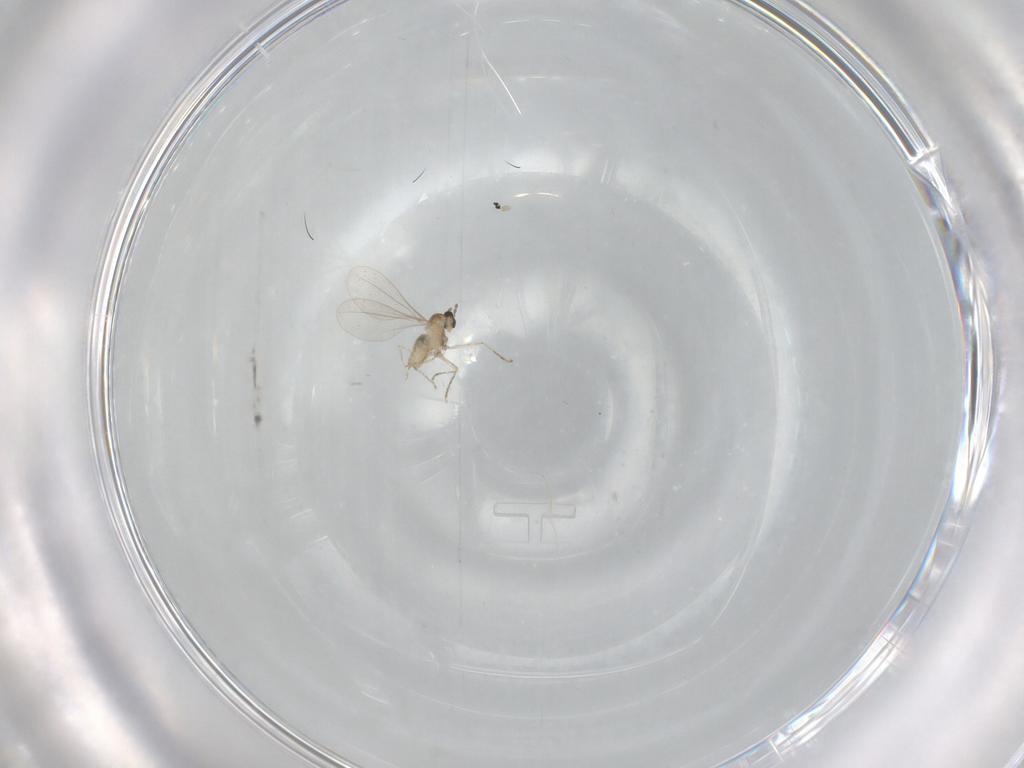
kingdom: Animalia
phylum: Arthropoda
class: Insecta
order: Diptera
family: Cecidomyiidae
